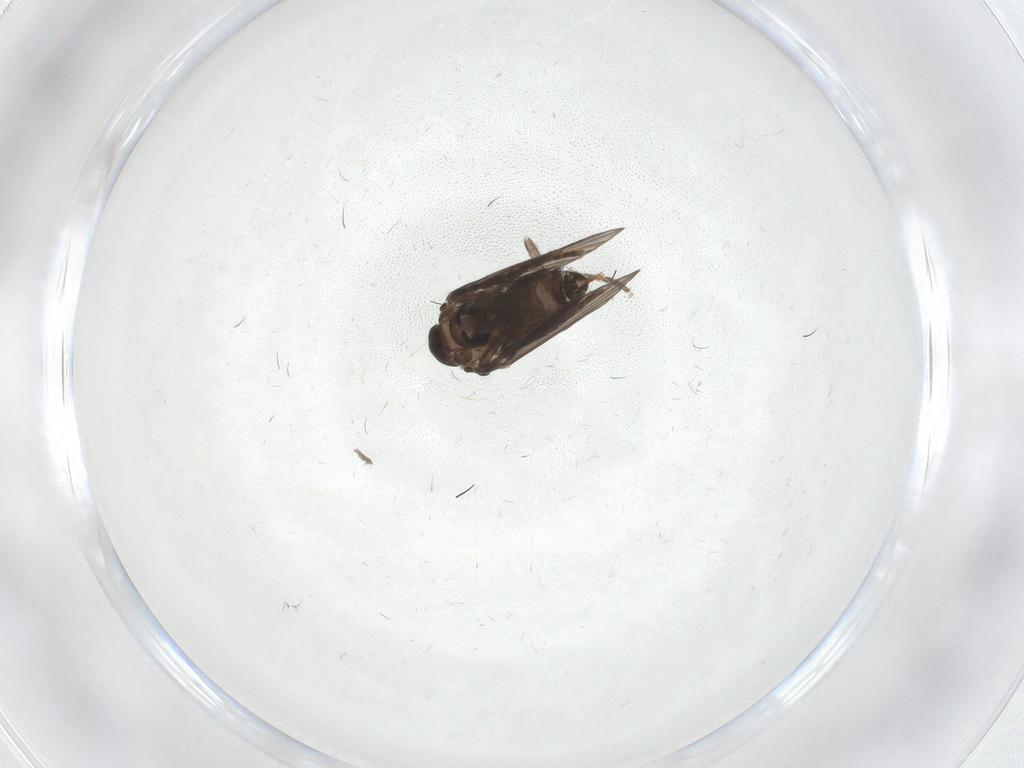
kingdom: Animalia
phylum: Arthropoda
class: Insecta
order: Diptera
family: Psychodidae
